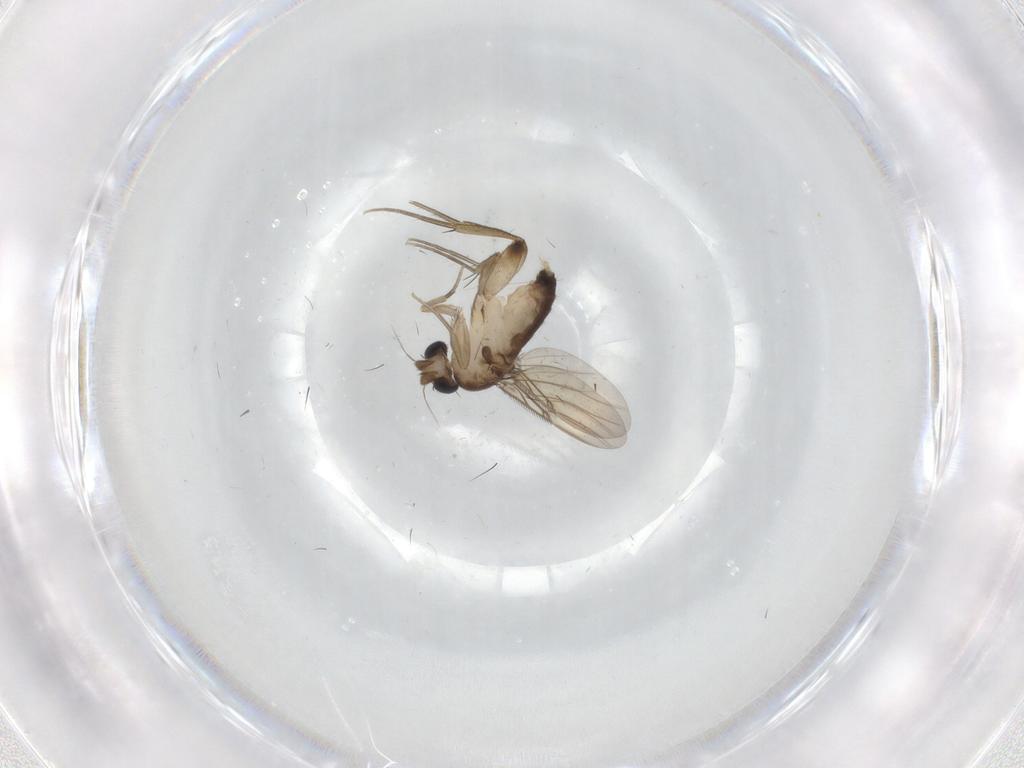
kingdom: Animalia
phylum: Arthropoda
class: Insecta
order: Diptera
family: Phoridae
